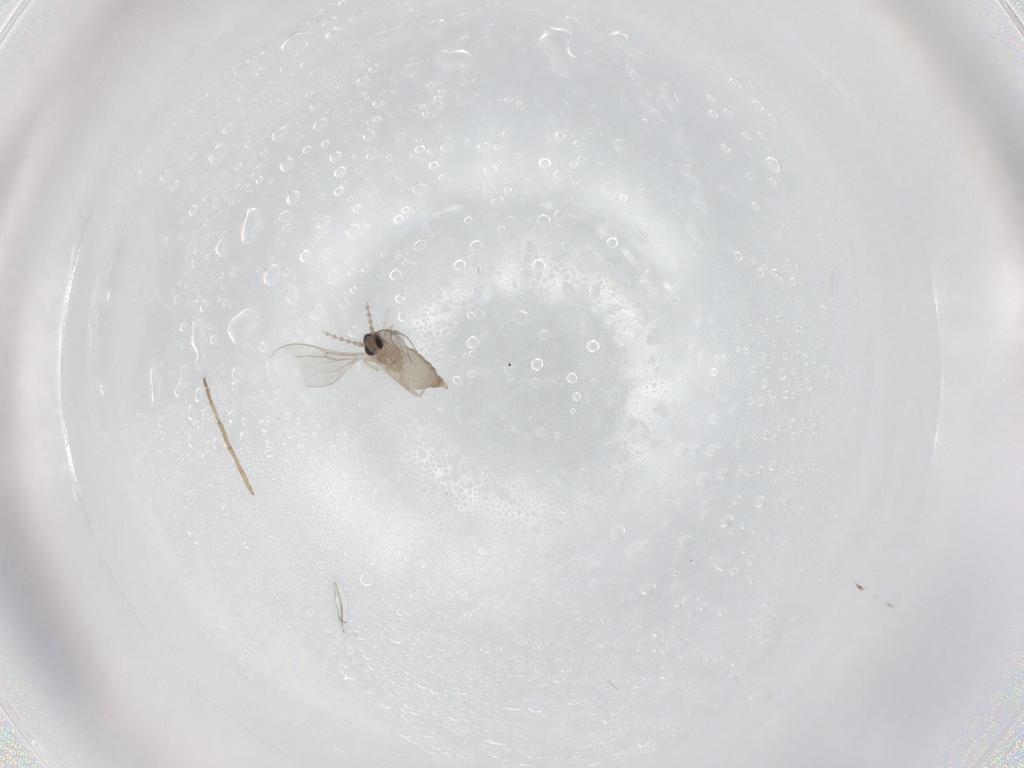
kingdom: Animalia
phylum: Arthropoda
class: Insecta
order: Diptera
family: Cecidomyiidae
